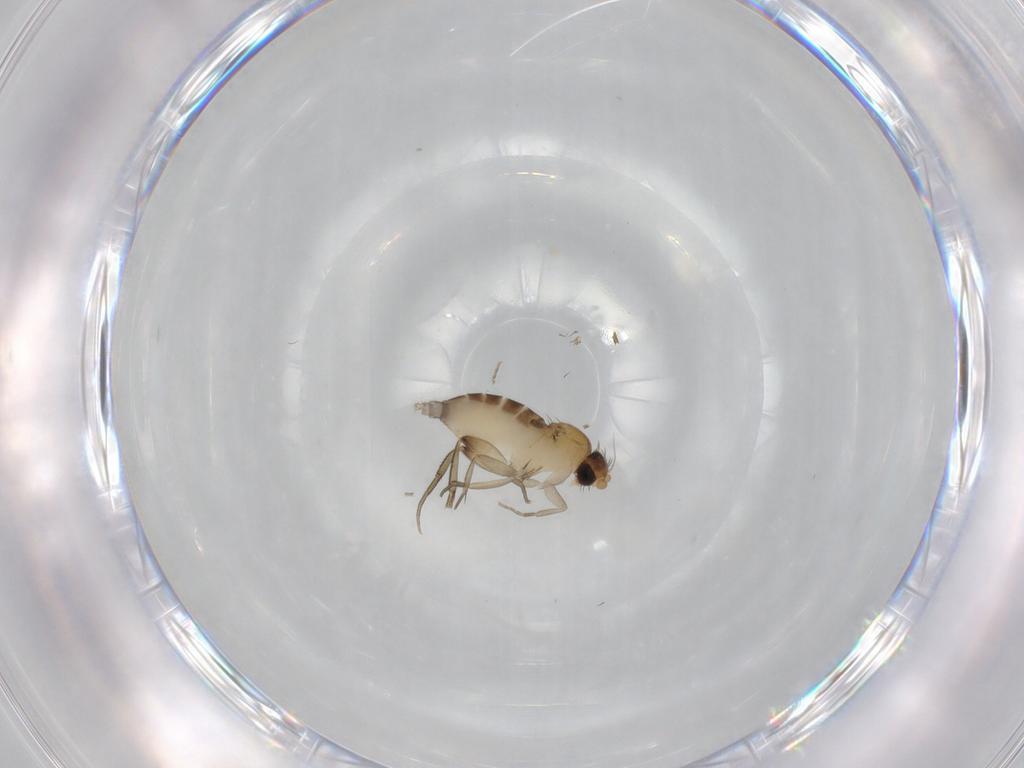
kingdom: Animalia
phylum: Arthropoda
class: Insecta
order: Diptera
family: Phoridae
